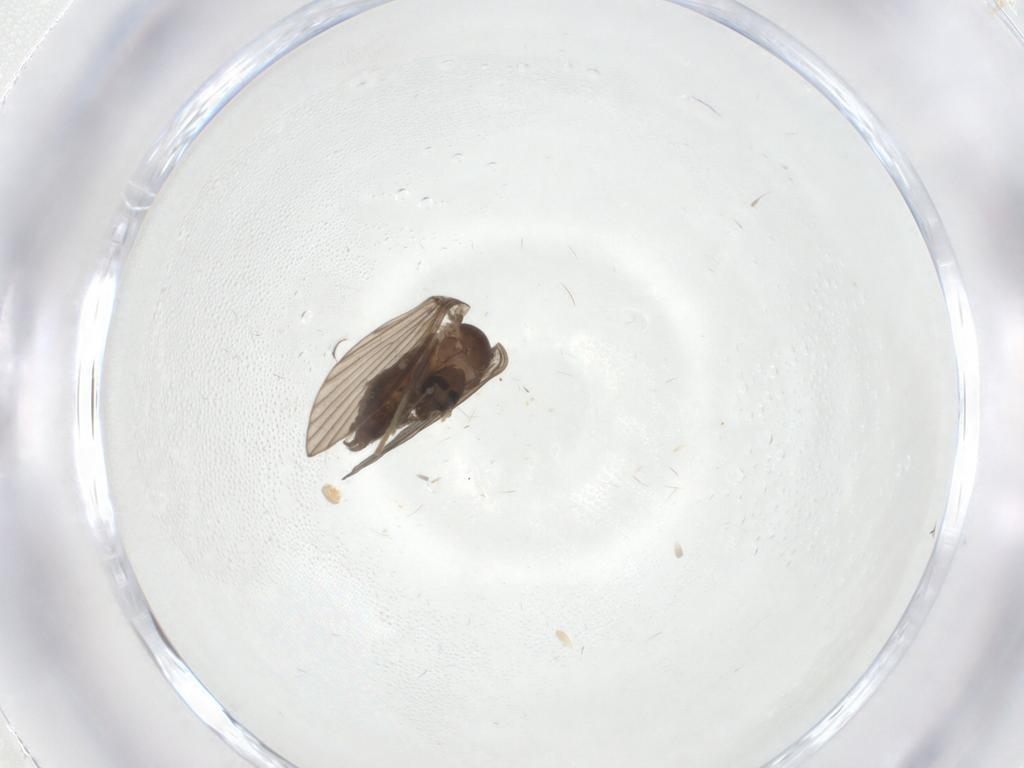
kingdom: Animalia
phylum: Arthropoda
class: Insecta
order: Diptera
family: Psychodidae
